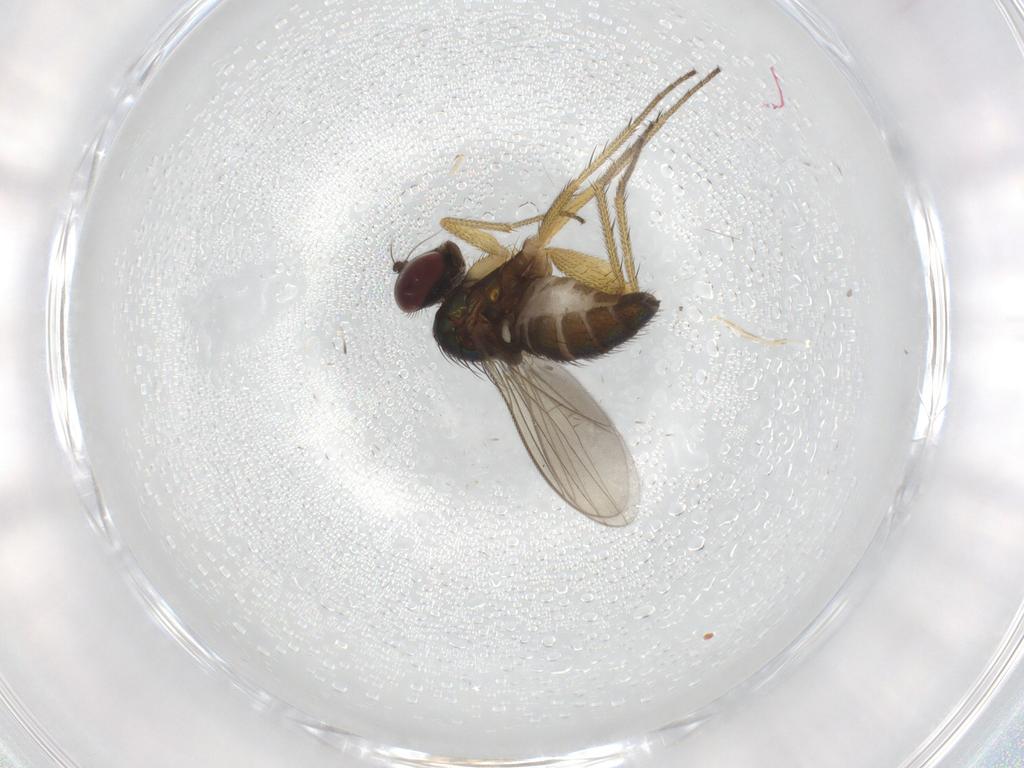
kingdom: Animalia
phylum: Arthropoda
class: Insecta
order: Diptera
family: Dolichopodidae
